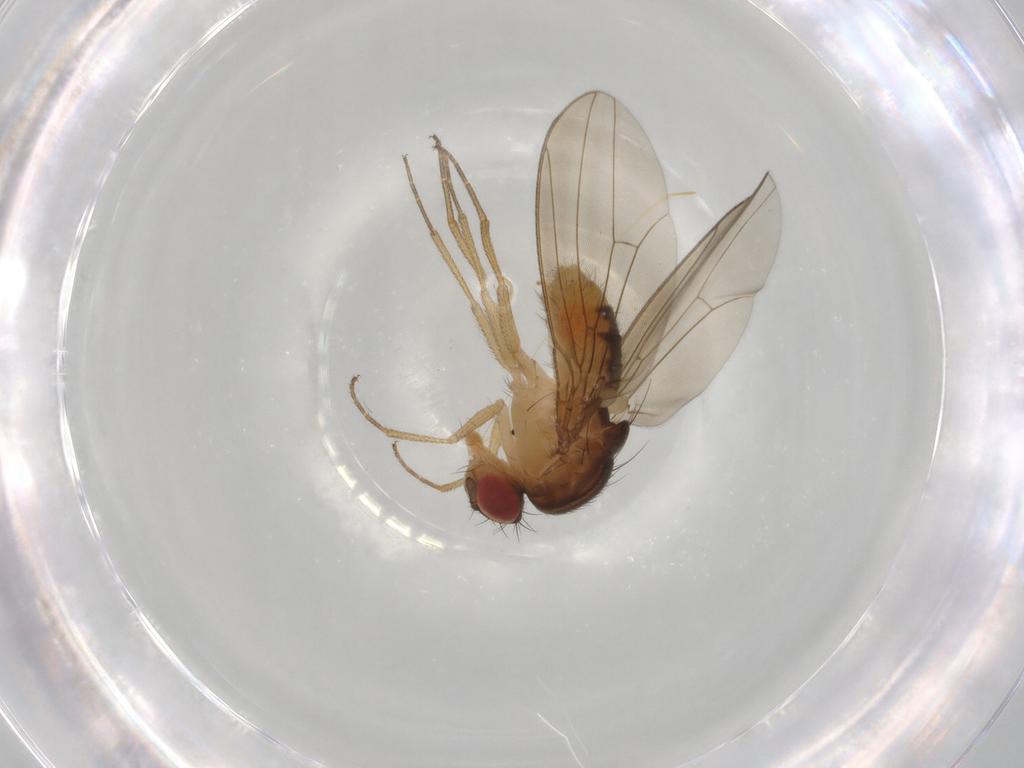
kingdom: Animalia
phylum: Arthropoda
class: Insecta
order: Diptera
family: Drosophilidae
